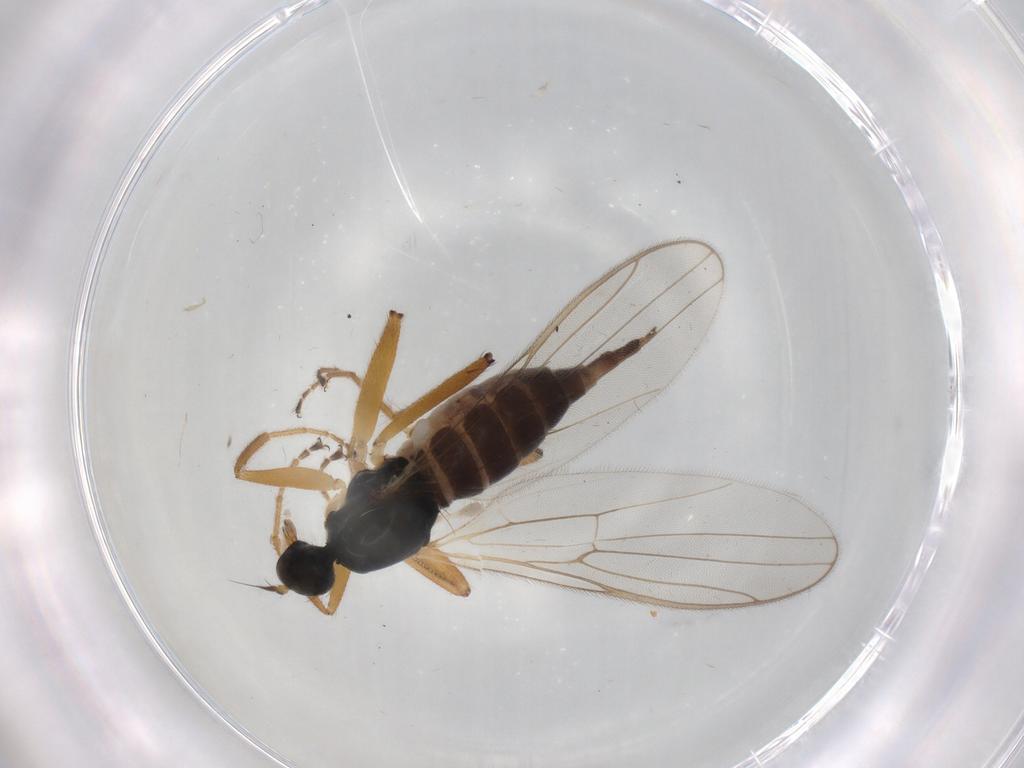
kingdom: Animalia
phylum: Arthropoda
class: Insecta
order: Diptera
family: Hybotidae
